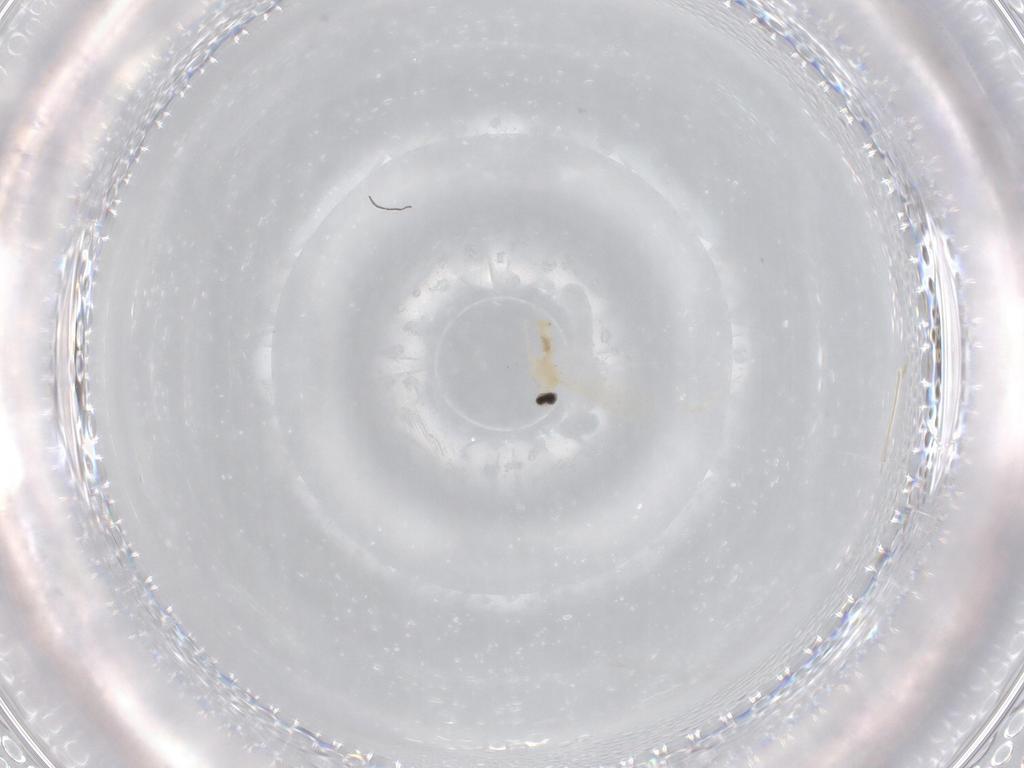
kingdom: Animalia
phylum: Arthropoda
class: Insecta
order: Diptera
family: Cecidomyiidae
